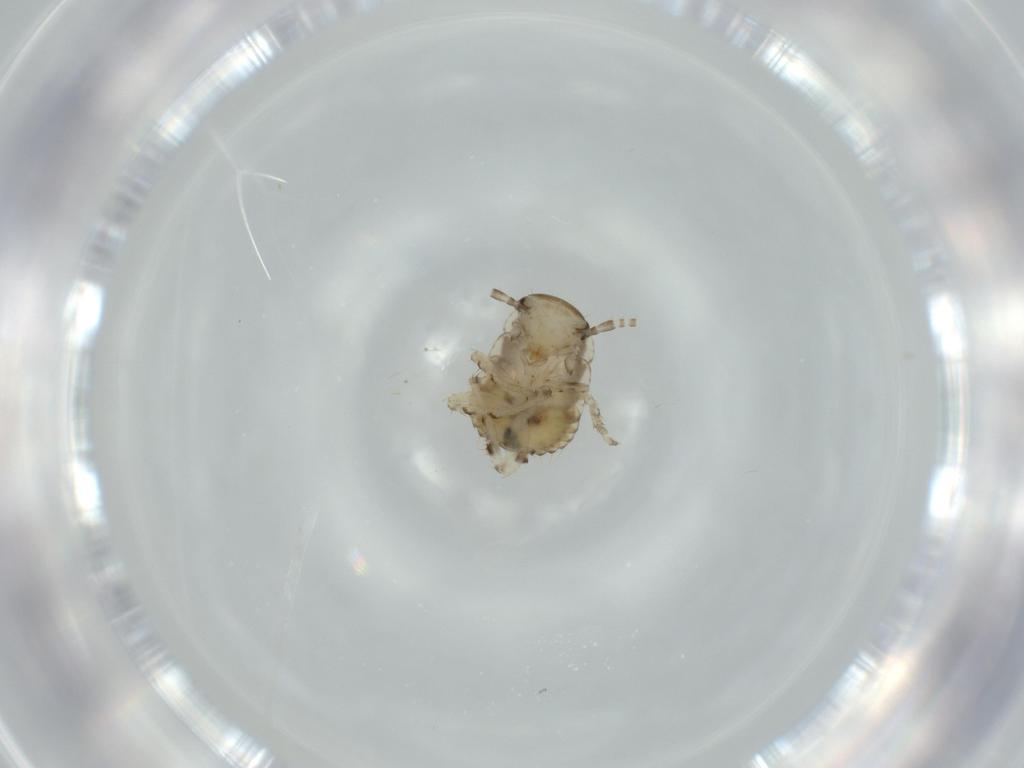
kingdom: Animalia
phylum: Arthropoda
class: Insecta
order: Blattodea
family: Ectobiidae
